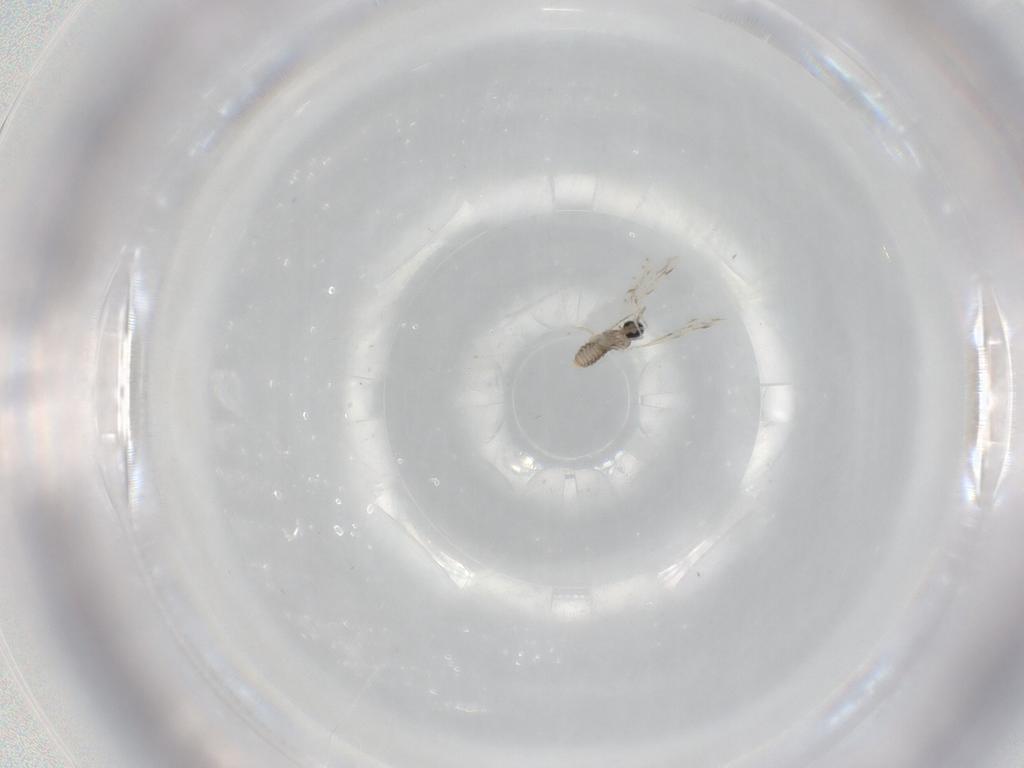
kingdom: Animalia
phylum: Arthropoda
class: Insecta
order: Diptera
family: Cecidomyiidae
